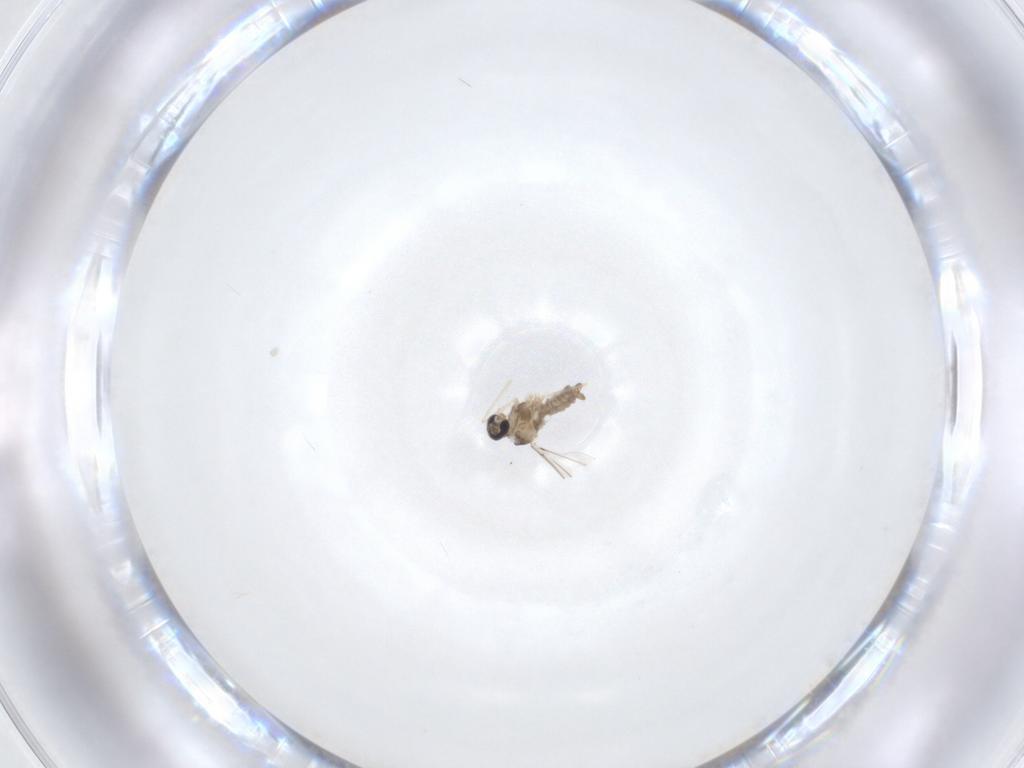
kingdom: Animalia
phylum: Arthropoda
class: Insecta
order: Diptera
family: Cecidomyiidae
